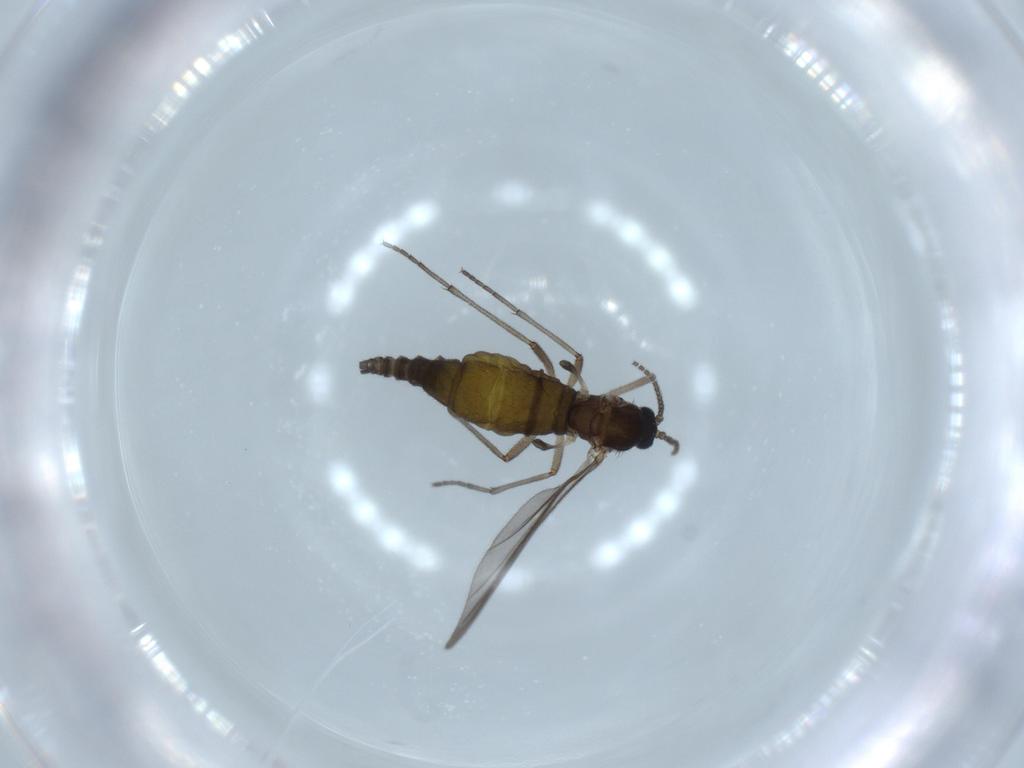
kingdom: Animalia
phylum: Arthropoda
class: Insecta
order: Diptera
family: Sciaridae
